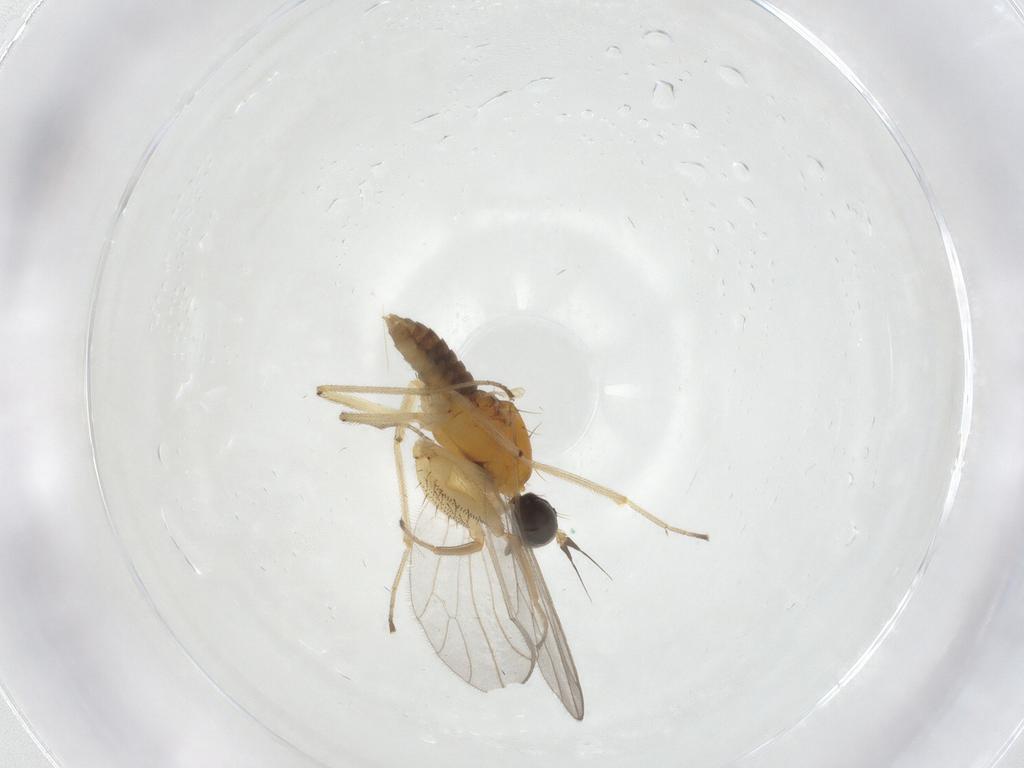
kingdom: Animalia
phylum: Arthropoda
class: Insecta
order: Diptera
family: Cecidomyiidae
